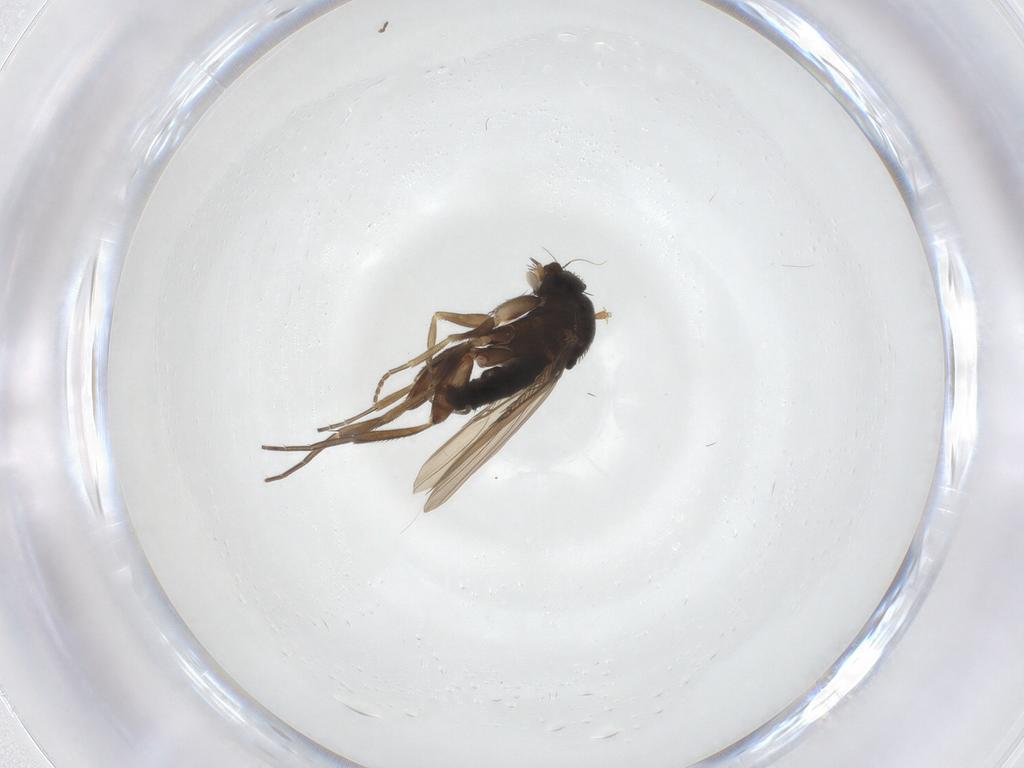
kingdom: Animalia
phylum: Arthropoda
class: Insecta
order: Diptera
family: Phoridae
